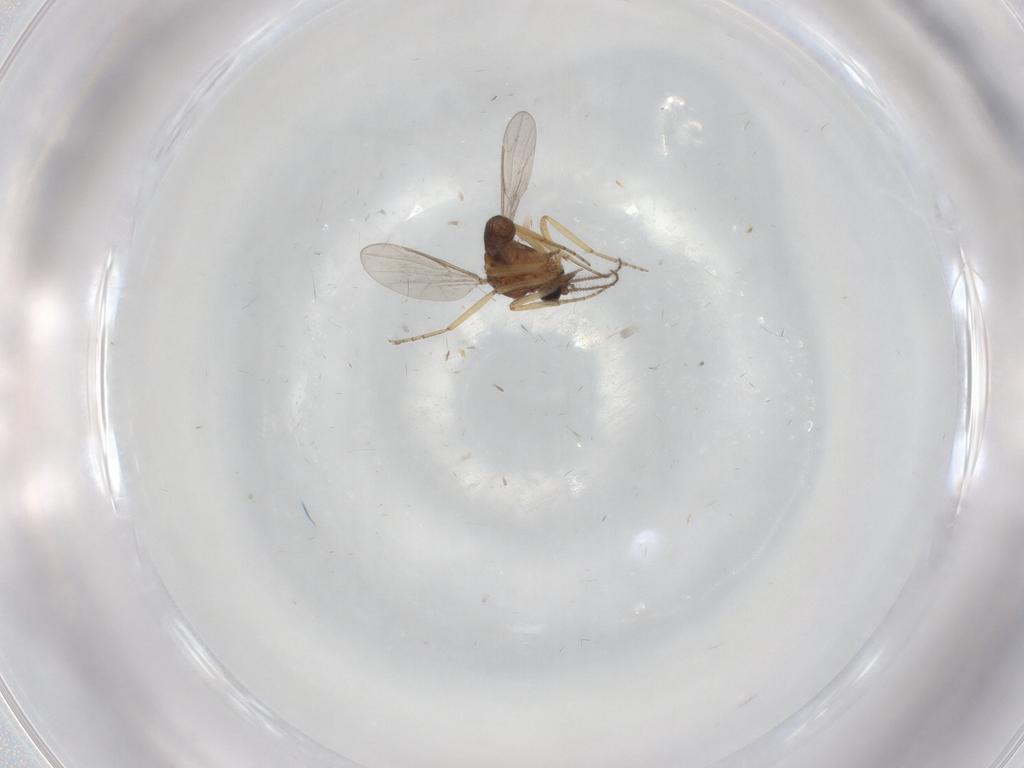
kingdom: Animalia
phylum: Arthropoda
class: Insecta
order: Diptera
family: Ceratopogonidae
